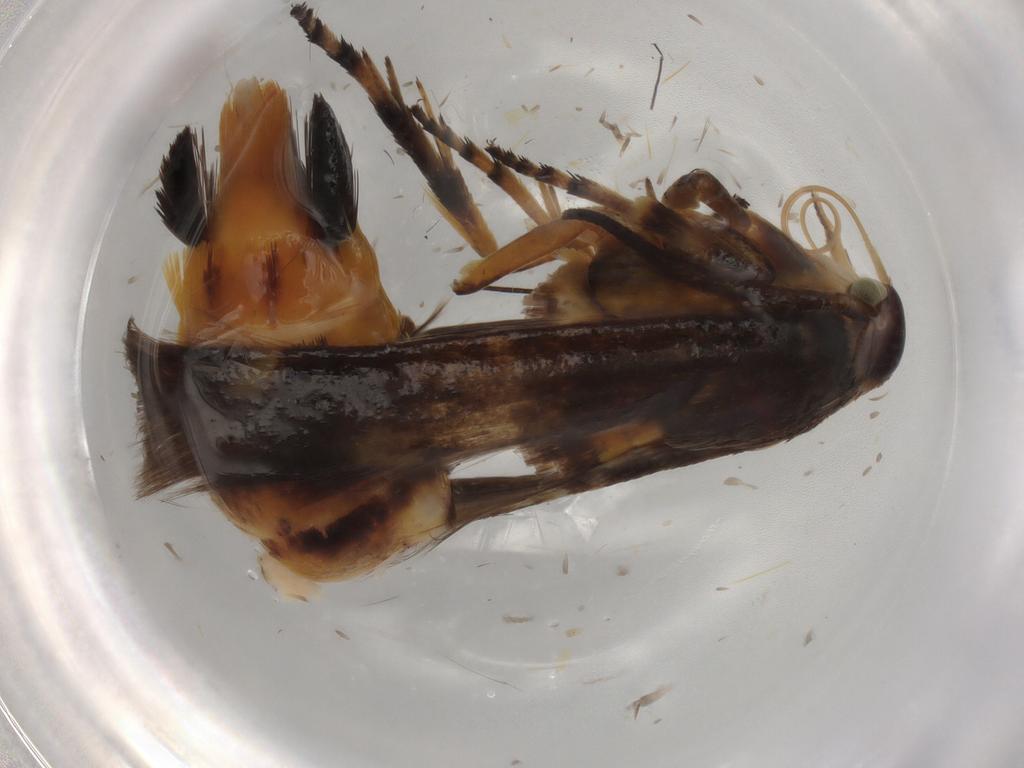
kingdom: Animalia
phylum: Arthropoda
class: Insecta
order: Lepidoptera
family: Scythrididae
